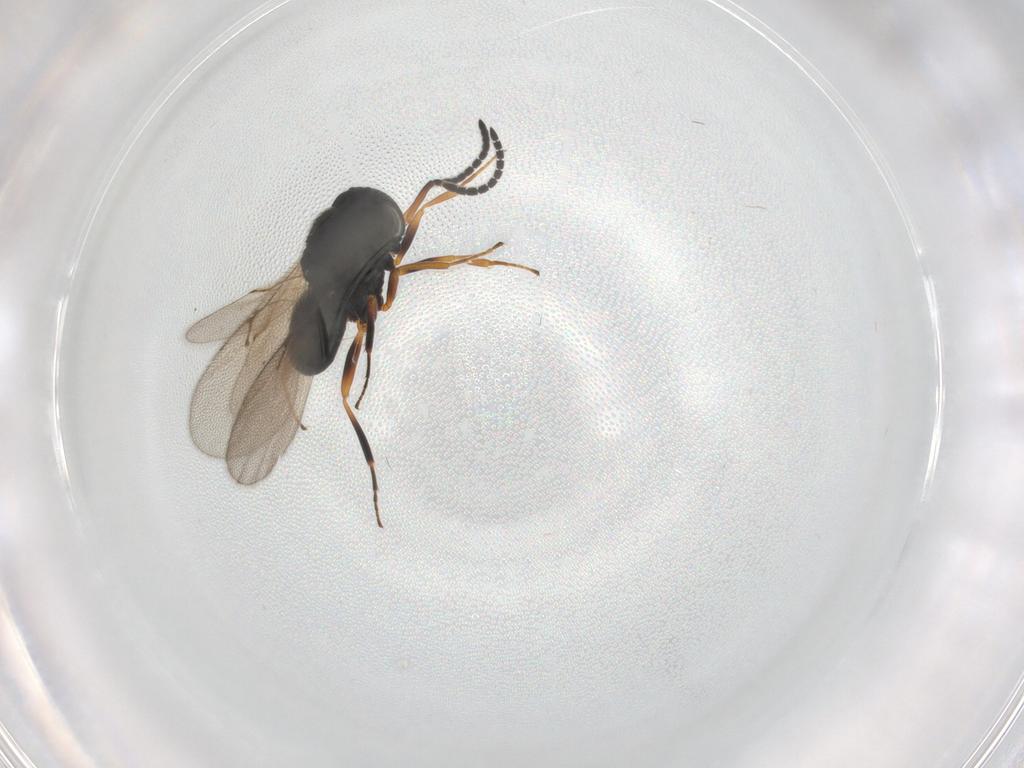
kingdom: Animalia
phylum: Arthropoda
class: Insecta
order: Hymenoptera
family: Scelionidae
